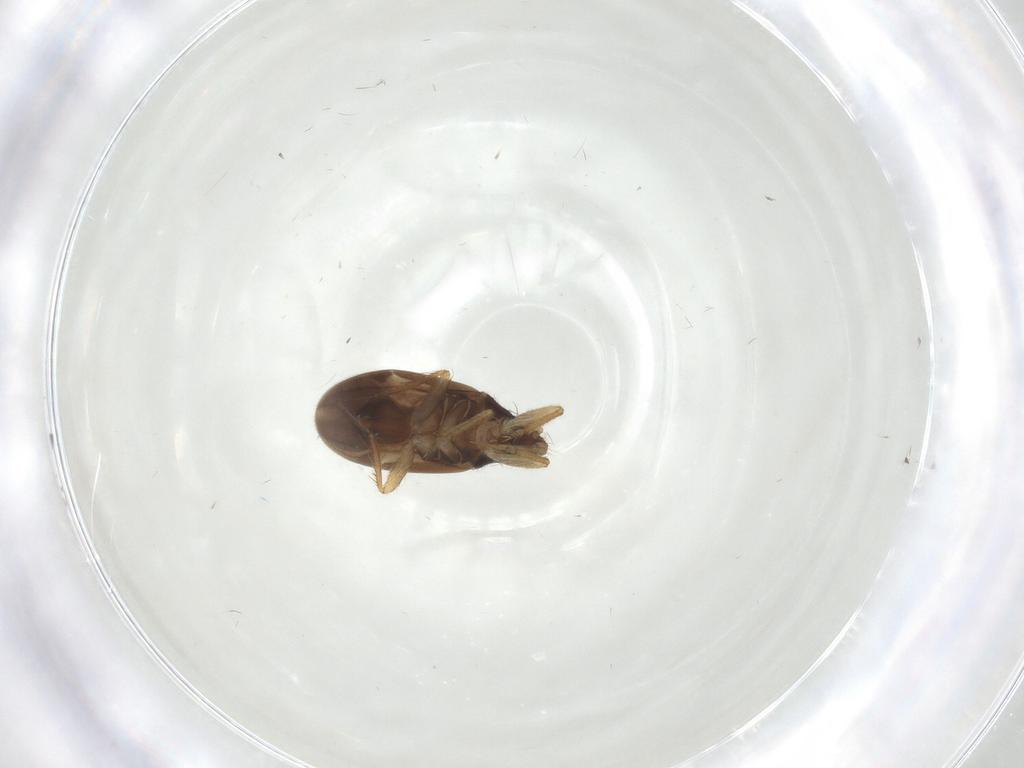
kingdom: Animalia
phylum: Arthropoda
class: Insecta
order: Hemiptera
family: Ceratocombidae
